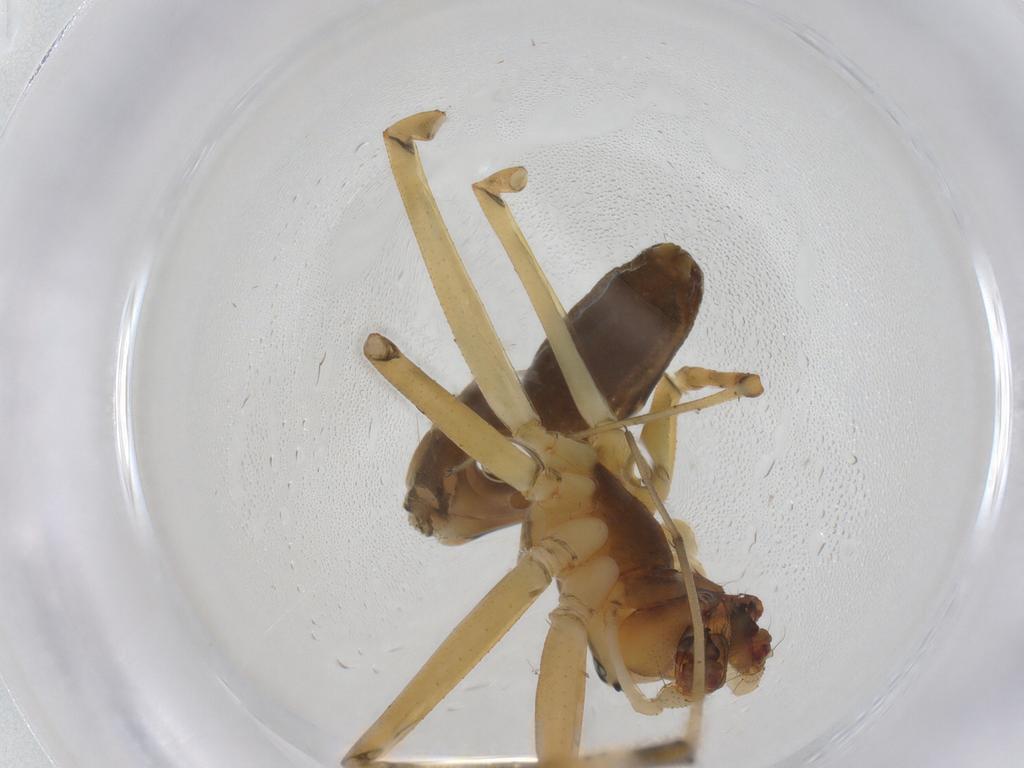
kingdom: Animalia
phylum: Arthropoda
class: Arachnida
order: Araneae
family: Linyphiidae
